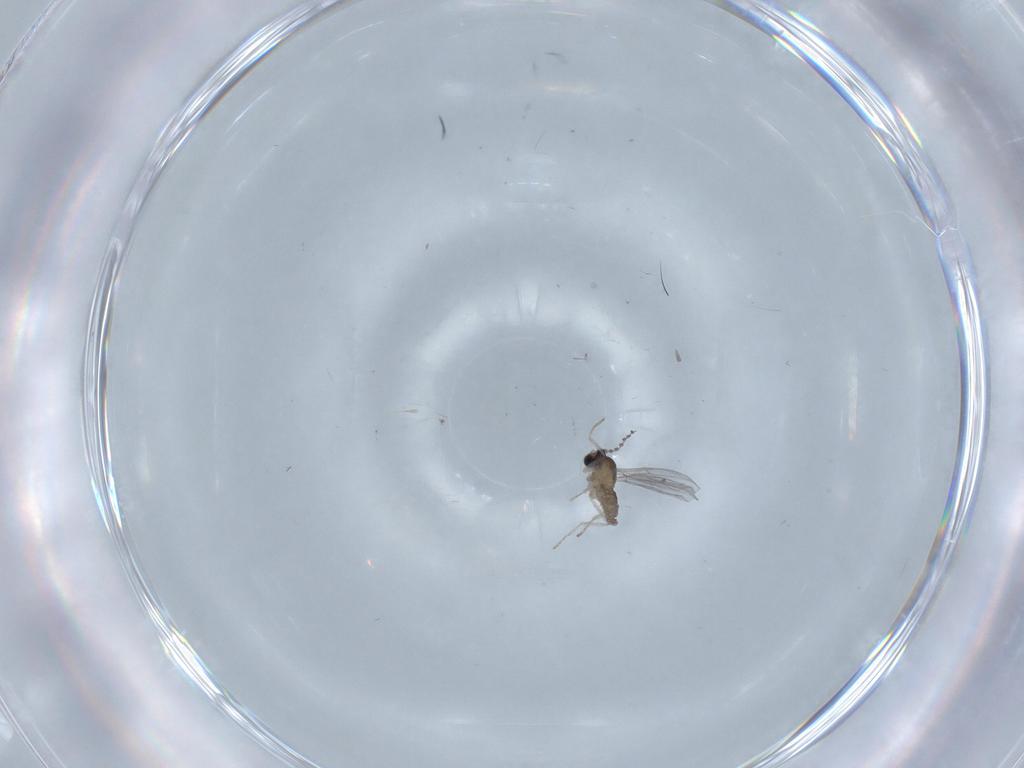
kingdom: Animalia
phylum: Arthropoda
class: Insecta
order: Diptera
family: Cecidomyiidae
